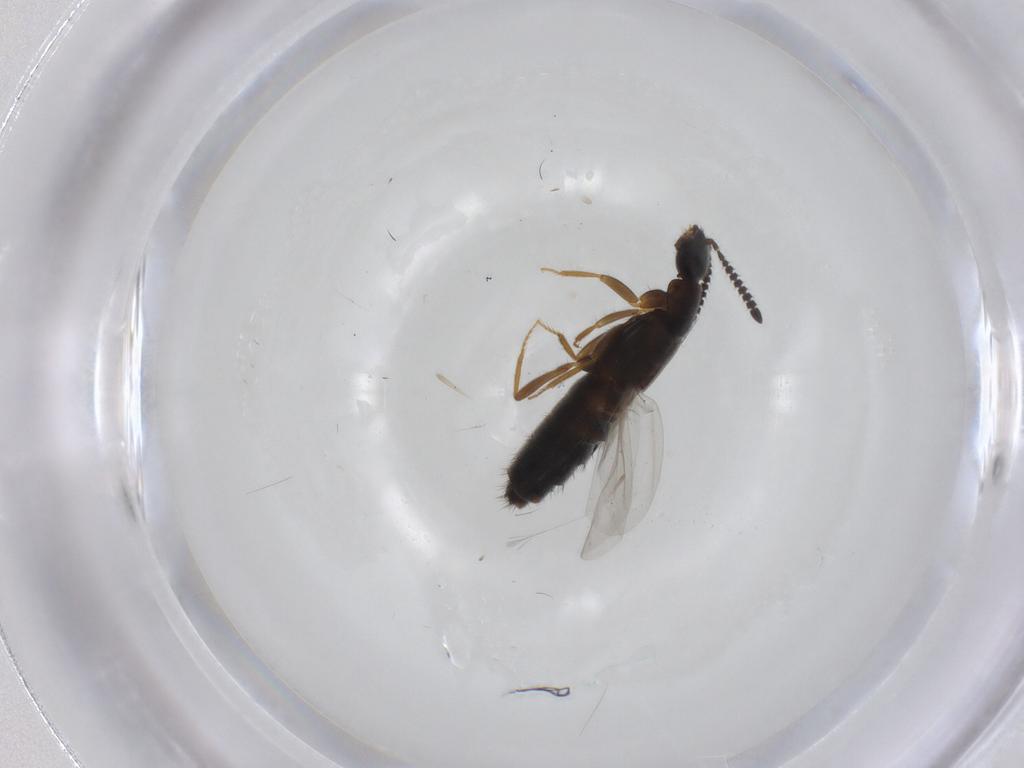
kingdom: Animalia
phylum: Arthropoda
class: Insecta
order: Coleoptera
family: Staphylinidae
